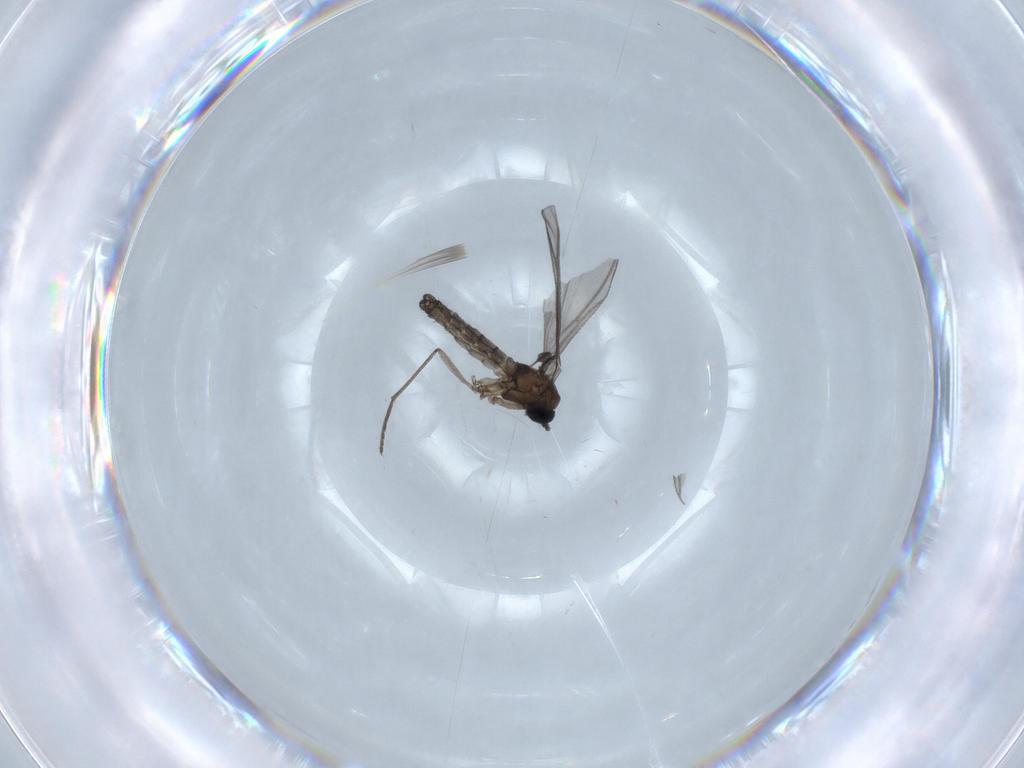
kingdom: Animalia
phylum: Arthropoda
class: Insecta
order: Diptera
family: Sciaridae
